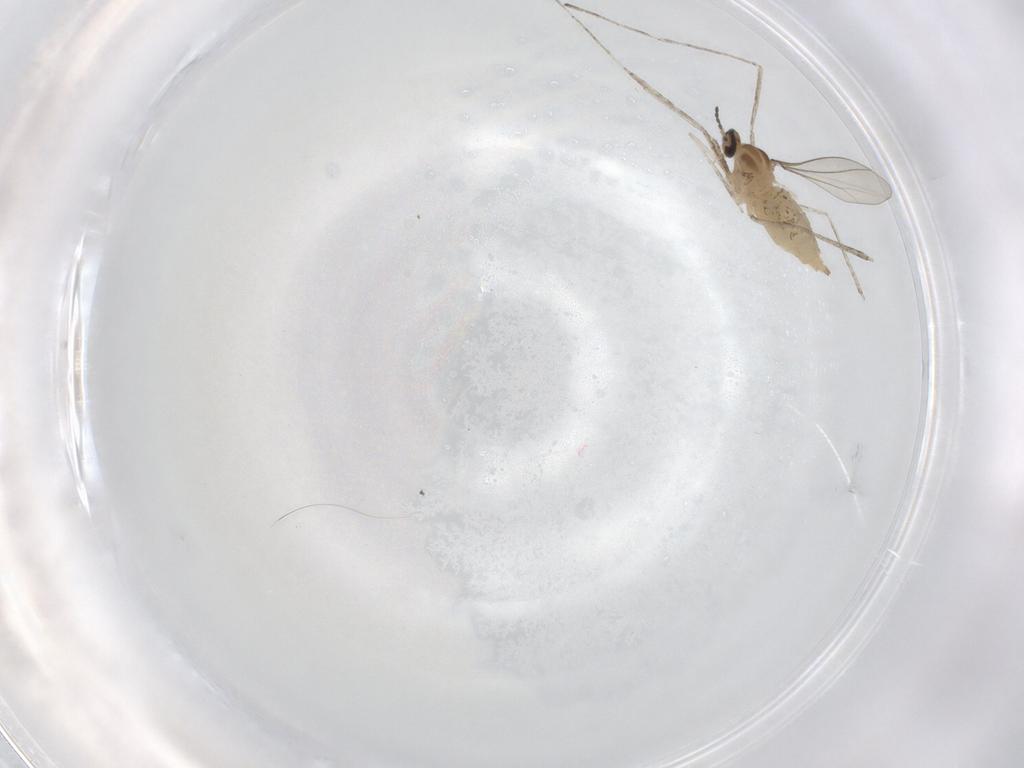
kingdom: Animalia
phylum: Arthropoda
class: Insecta
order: Diptera
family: Cecidomyiidae
